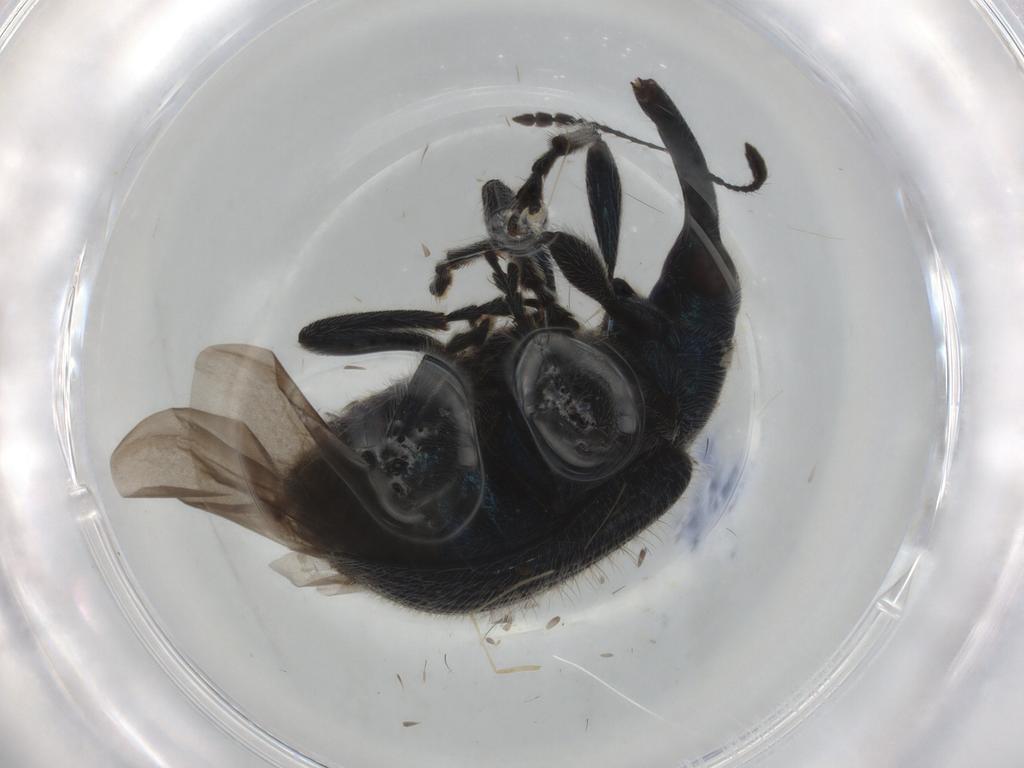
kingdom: Animalia
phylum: Arthropoda
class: Insecta
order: Coleoptera
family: Attelabidae
